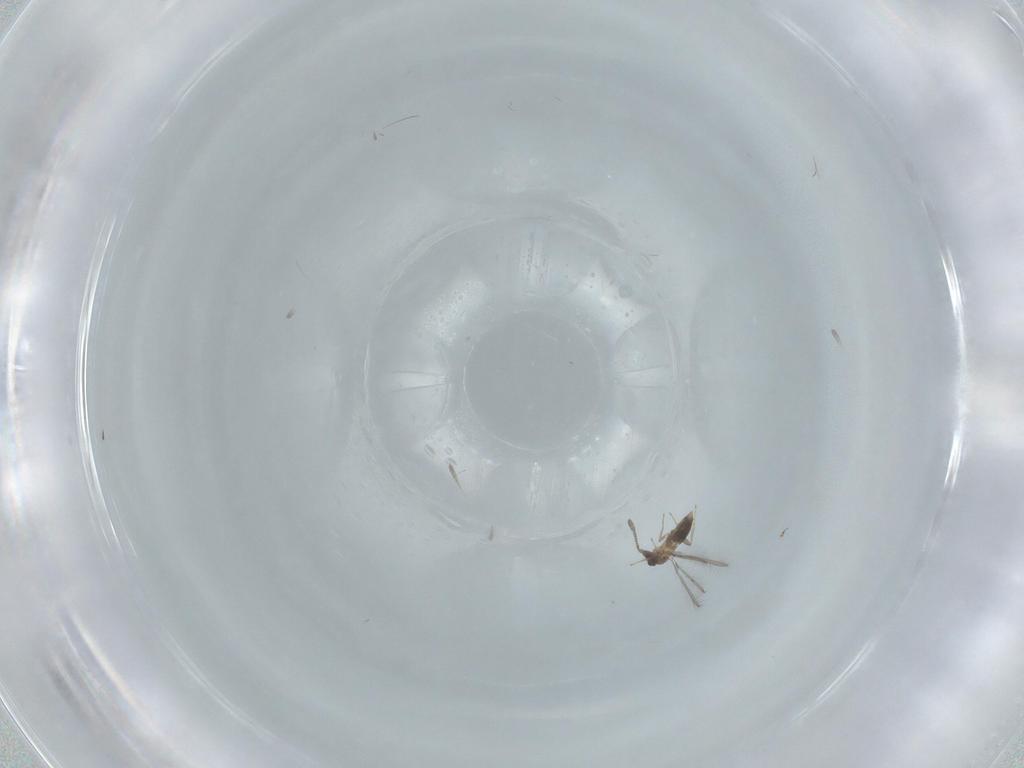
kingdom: Animalia
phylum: Arthropoda
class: Insecta
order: Hymenoptera
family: Mymaridae
